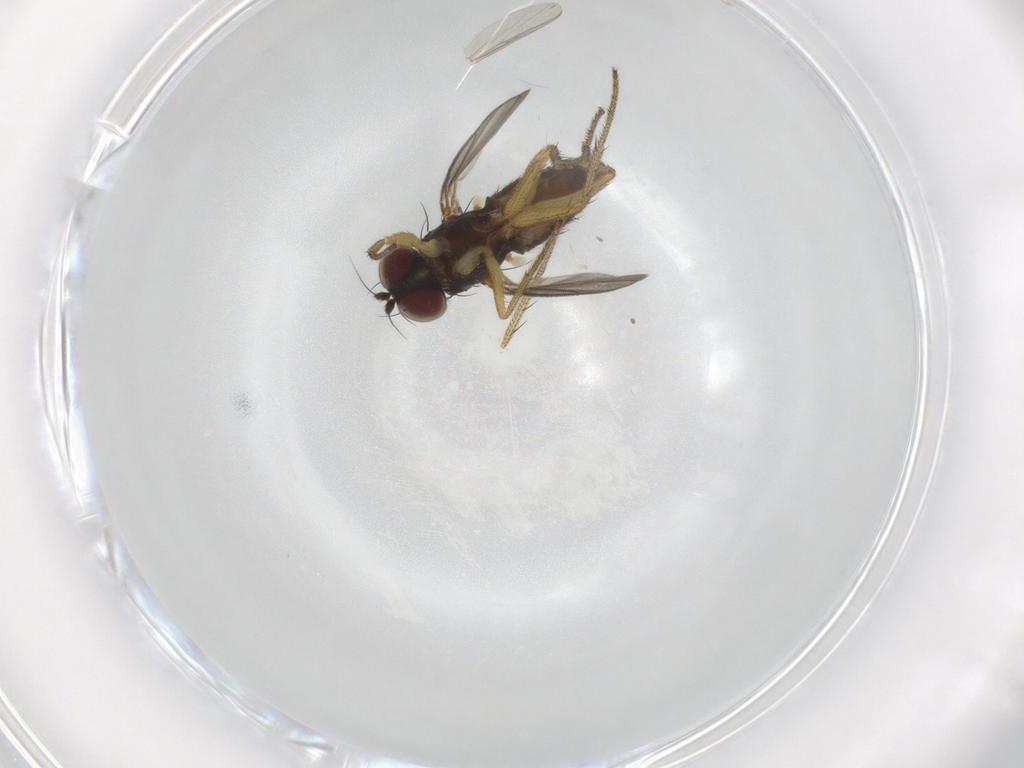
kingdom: Animalia
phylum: Arthropoda
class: Insecta
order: Diptera
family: Dolichopodidae
